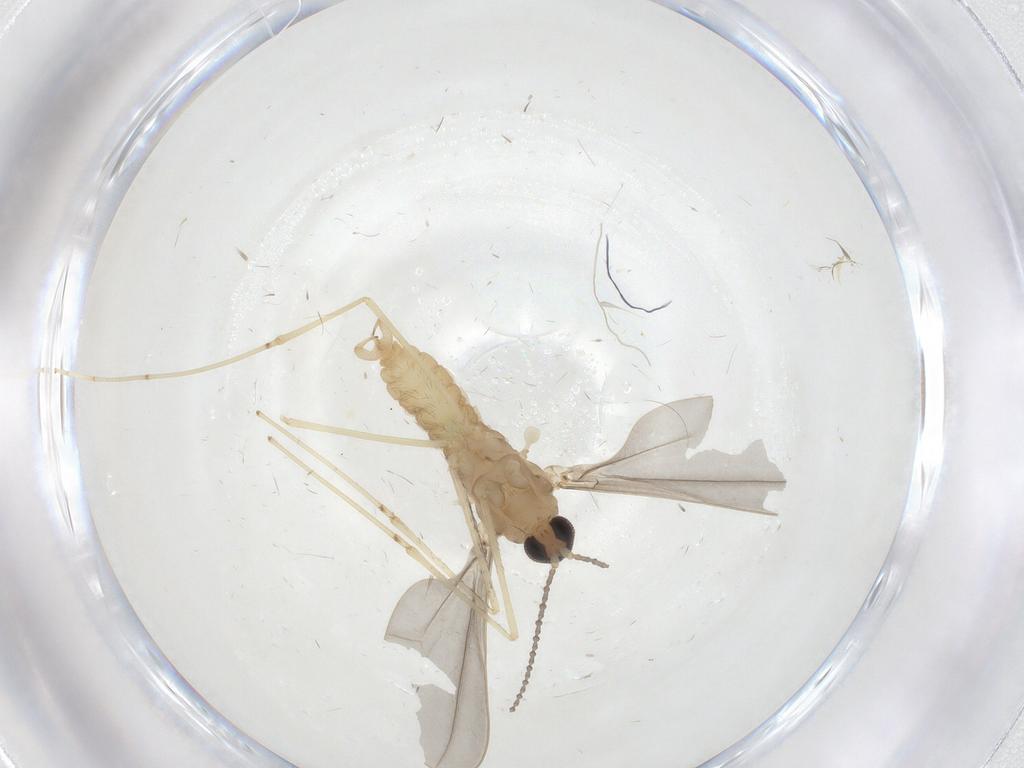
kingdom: Animalia
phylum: Arthropoda
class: Insecta
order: Diptera
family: Cecidomyiidae
